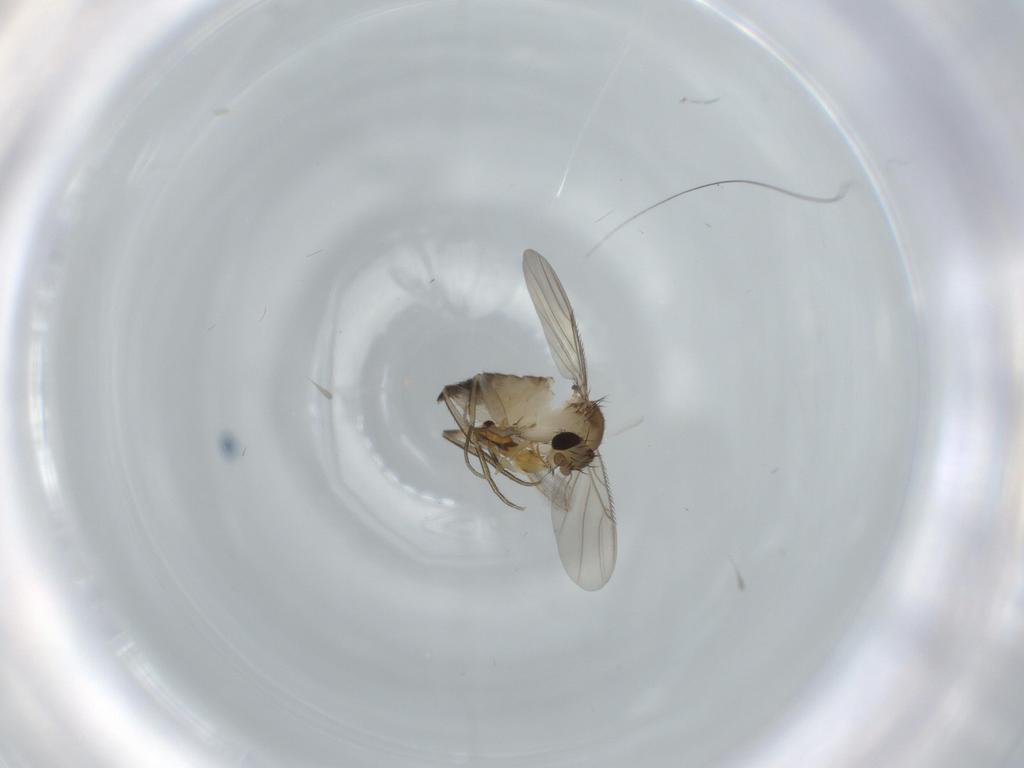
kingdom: Animalia
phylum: Arthropoda
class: Insecta
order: Diptera
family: Phoridae
